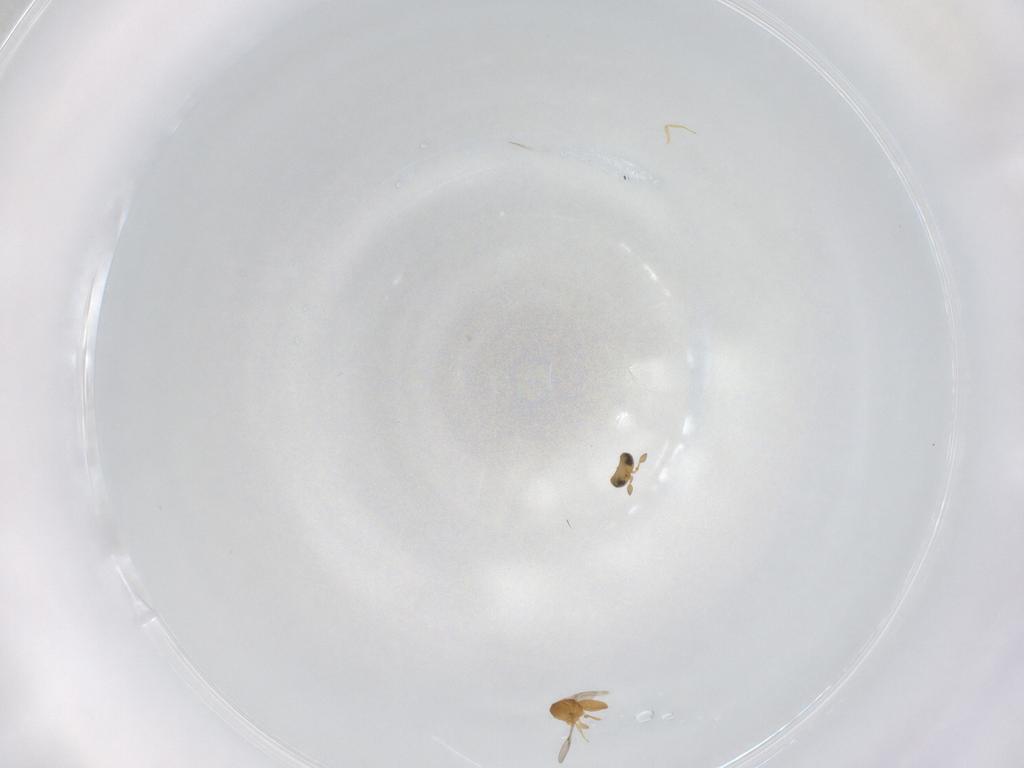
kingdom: Animalia
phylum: Arthropoda
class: Insecta
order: Hymenoptera
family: Scelionidae
